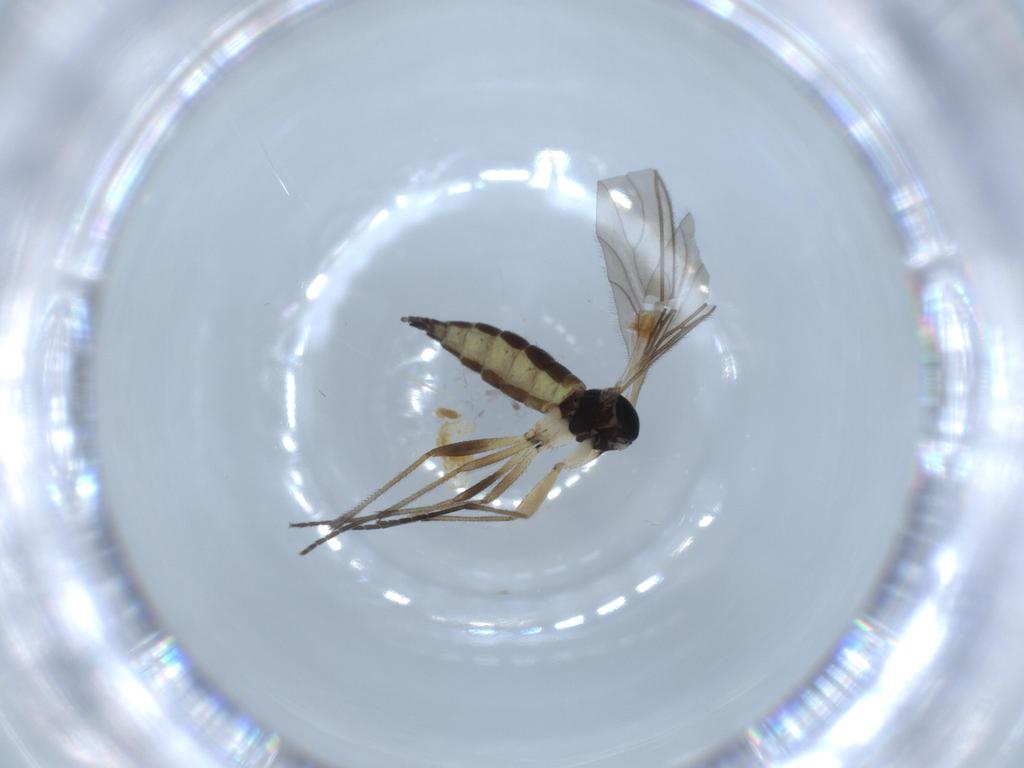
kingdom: Animalia
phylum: Arthropoda
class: Insecta
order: Diptera
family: Chironomidae
